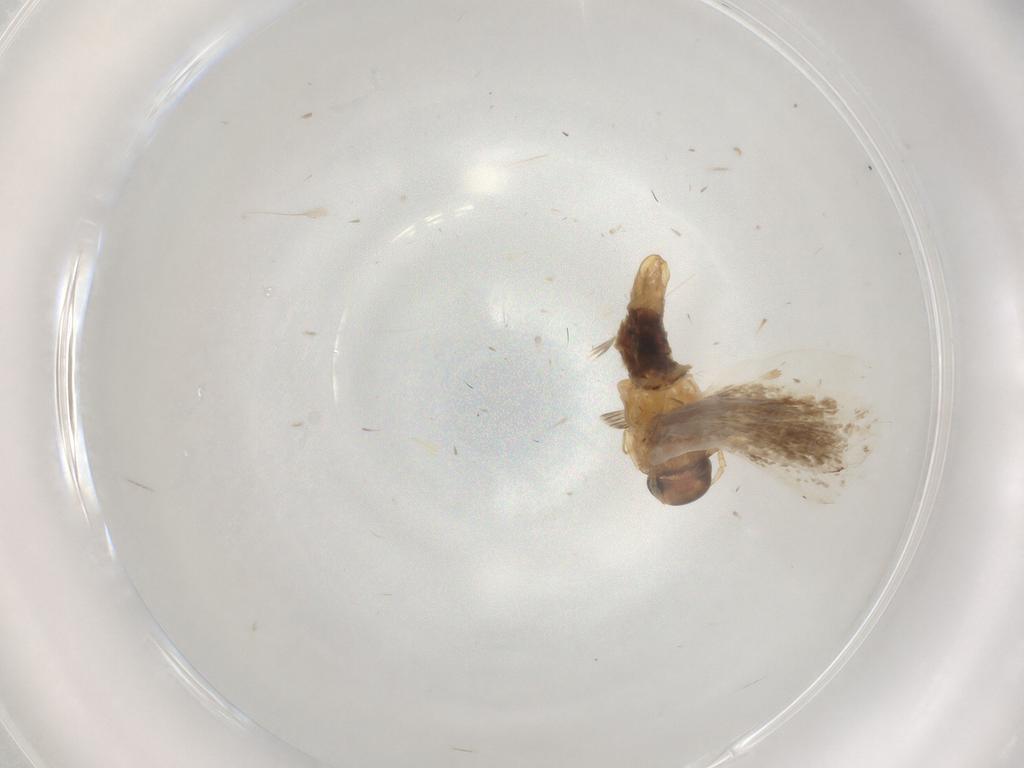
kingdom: Animalia
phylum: Arthropoda
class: Insecta
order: Lepidoptera
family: Oecophoridae
